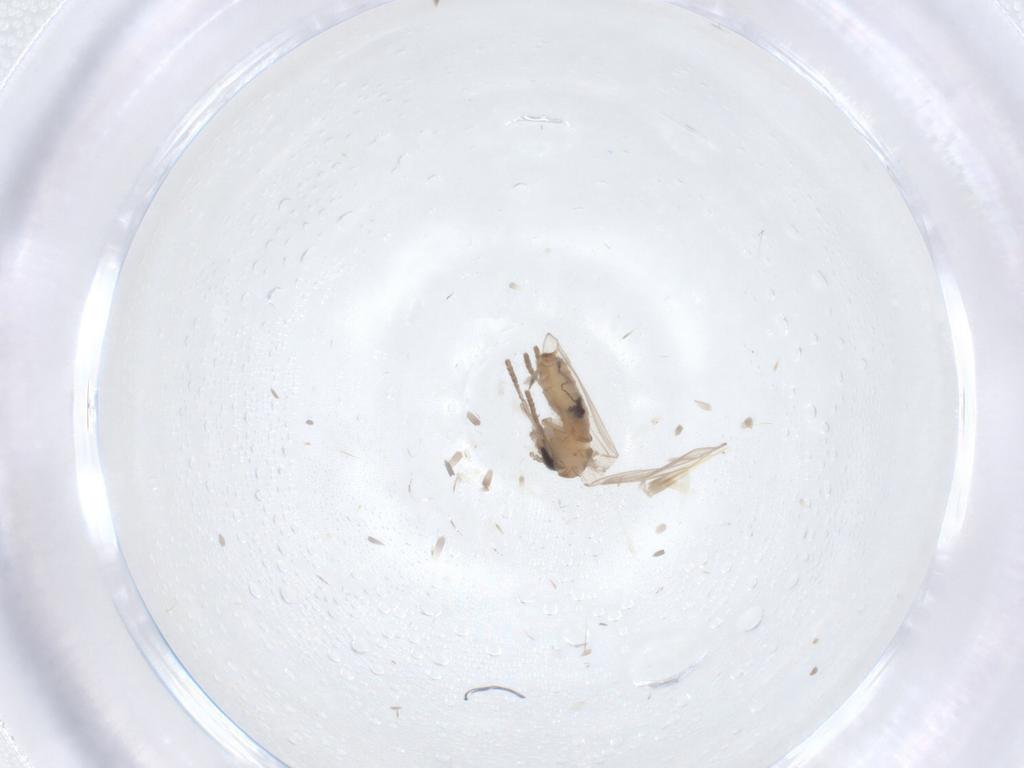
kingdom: Animalia
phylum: Arthropoda
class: Insecta
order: Diptera
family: Psychodidae
